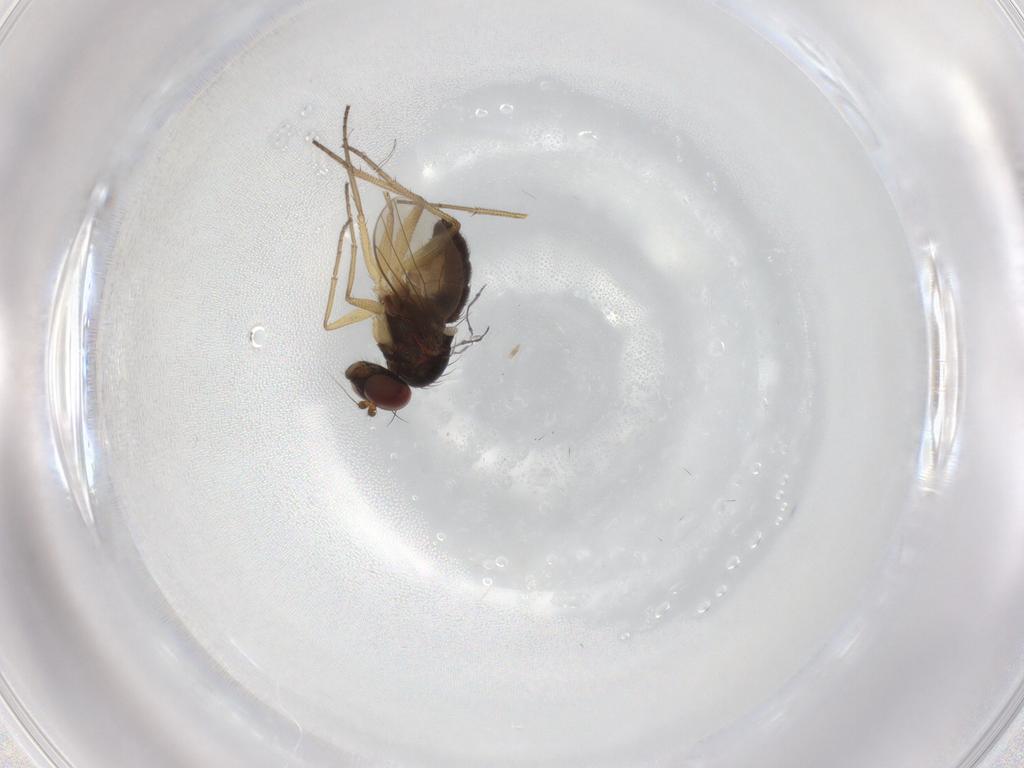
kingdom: Animalia
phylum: Arthropoda
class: Insecta
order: Diptera
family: Dolichopodidae
